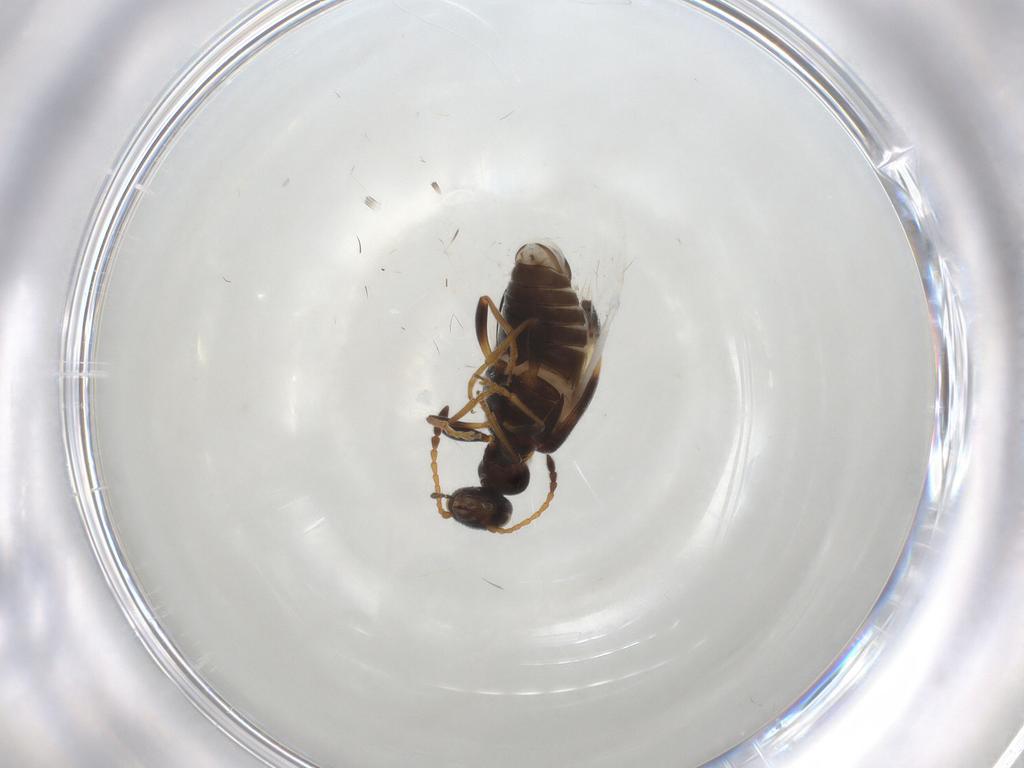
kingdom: Animalia
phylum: Arthropoda
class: Insecta
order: Coleoptera
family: Anthicidae
